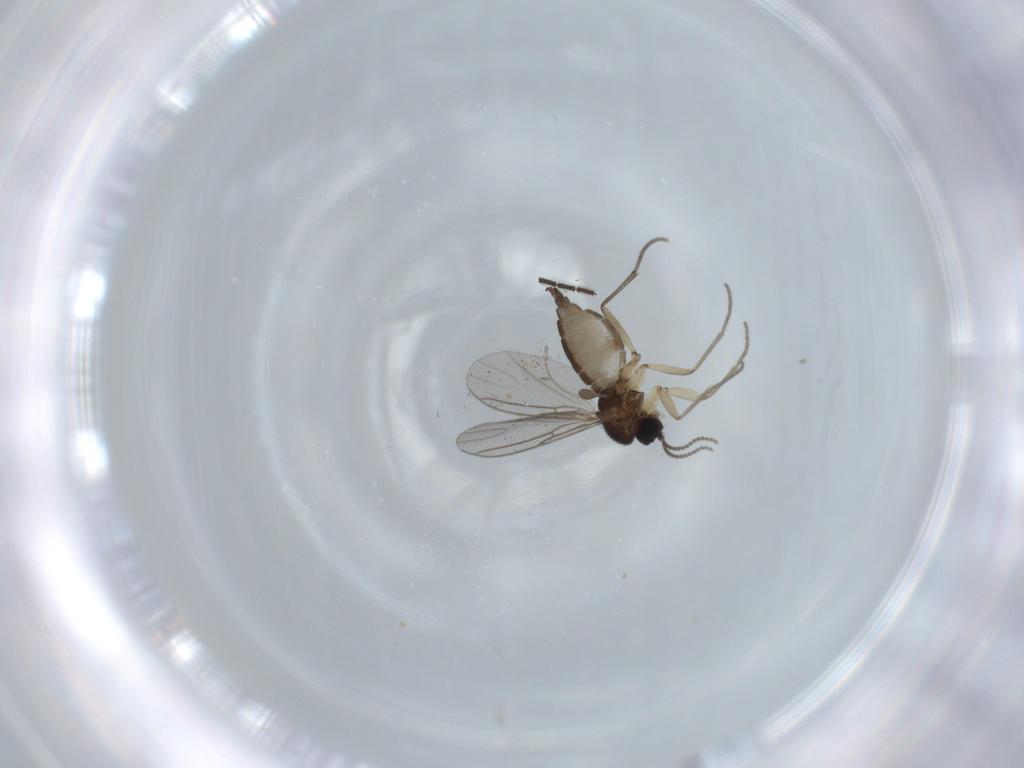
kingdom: Animalia
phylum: Arthropoda
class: Insecta
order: Diptera
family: Sciaridae
